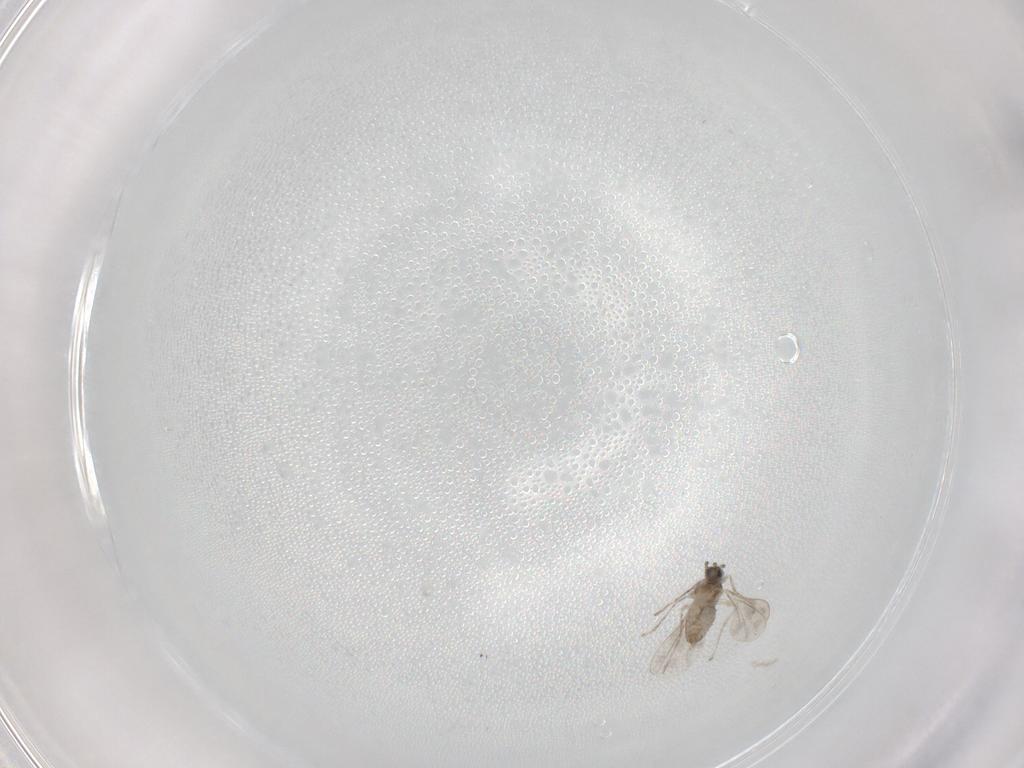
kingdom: Animalia
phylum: Arthropoda
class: Insecta
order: Diptera
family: Cecidomyiidae
